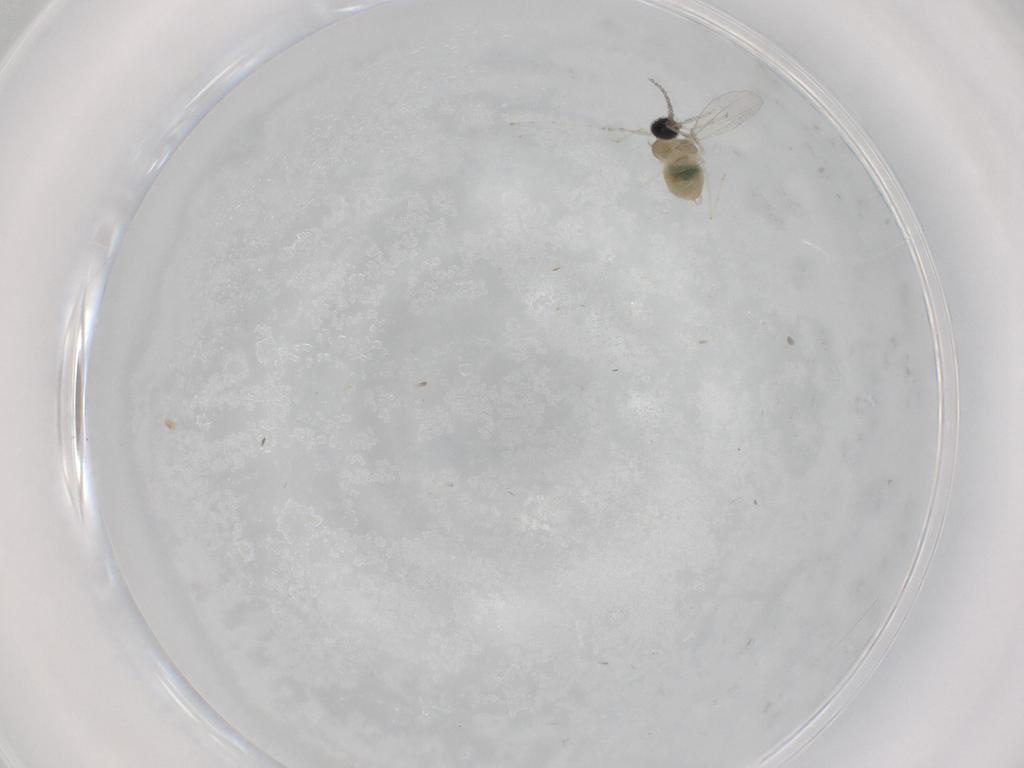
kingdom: Animalia
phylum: Arthropoda
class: Insecta
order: Diptera
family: Cecidomyiidae
